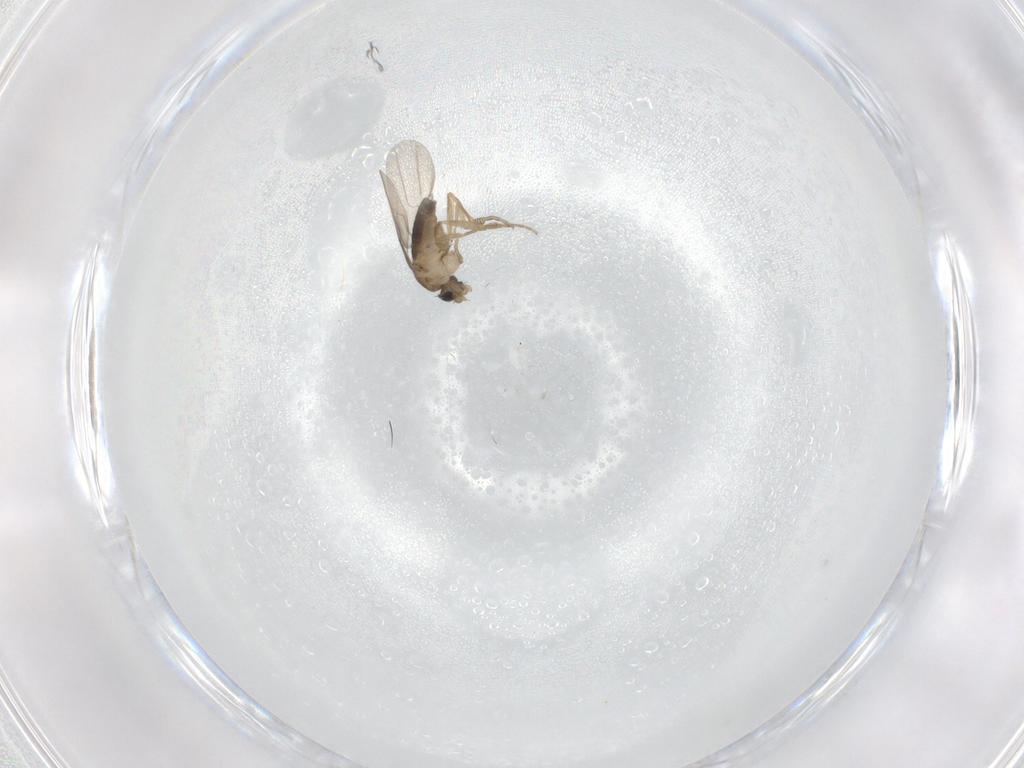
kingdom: Animalia
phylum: Arthropoda
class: Insecta
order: Diptera
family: Phoridae
